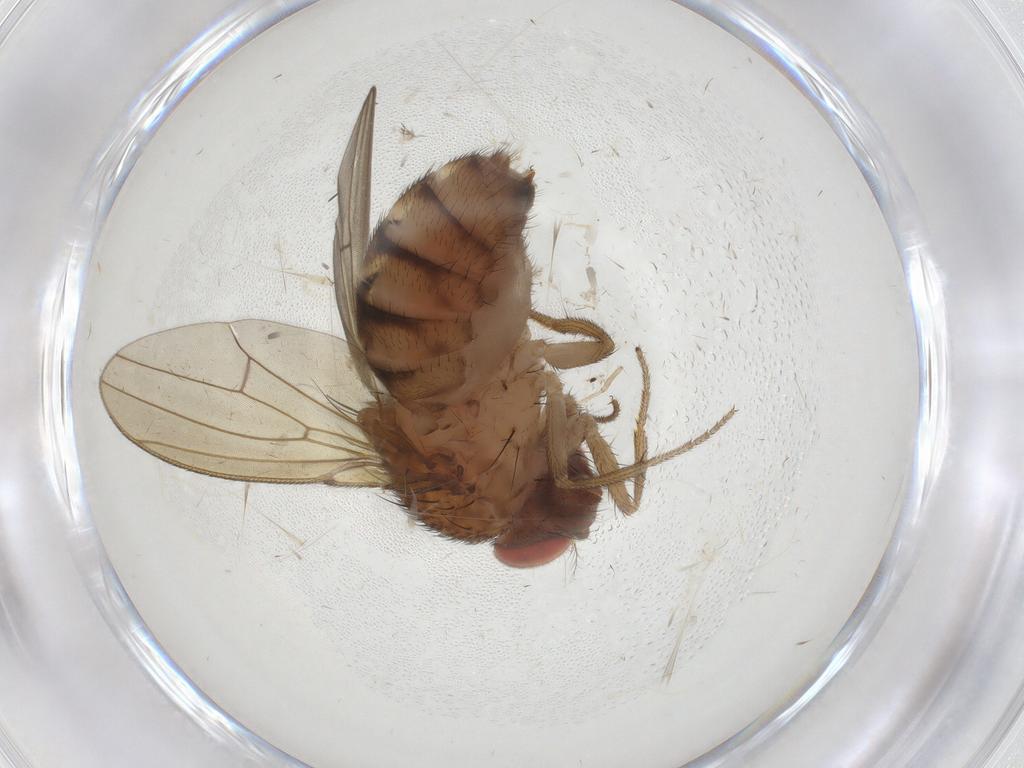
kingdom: Animalia
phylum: Arthropoda
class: Insecta
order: Diptera
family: Drosophilidae
